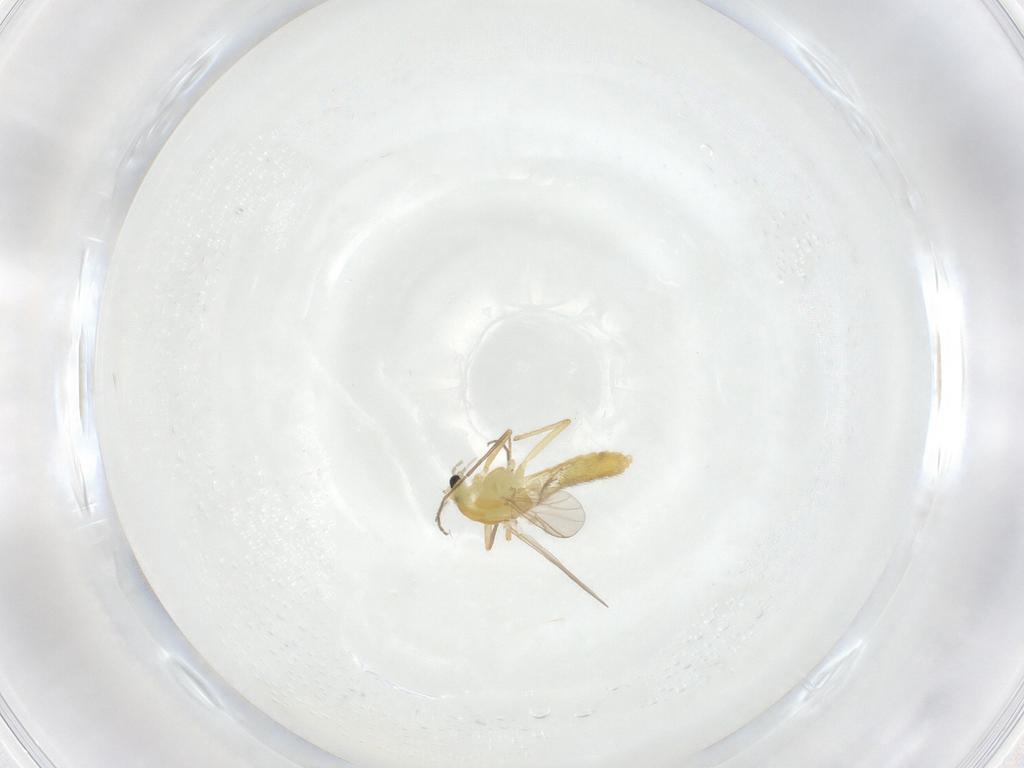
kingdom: Animalia
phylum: Arthropoda
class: Insecta
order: Diptera
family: Chironomidae
